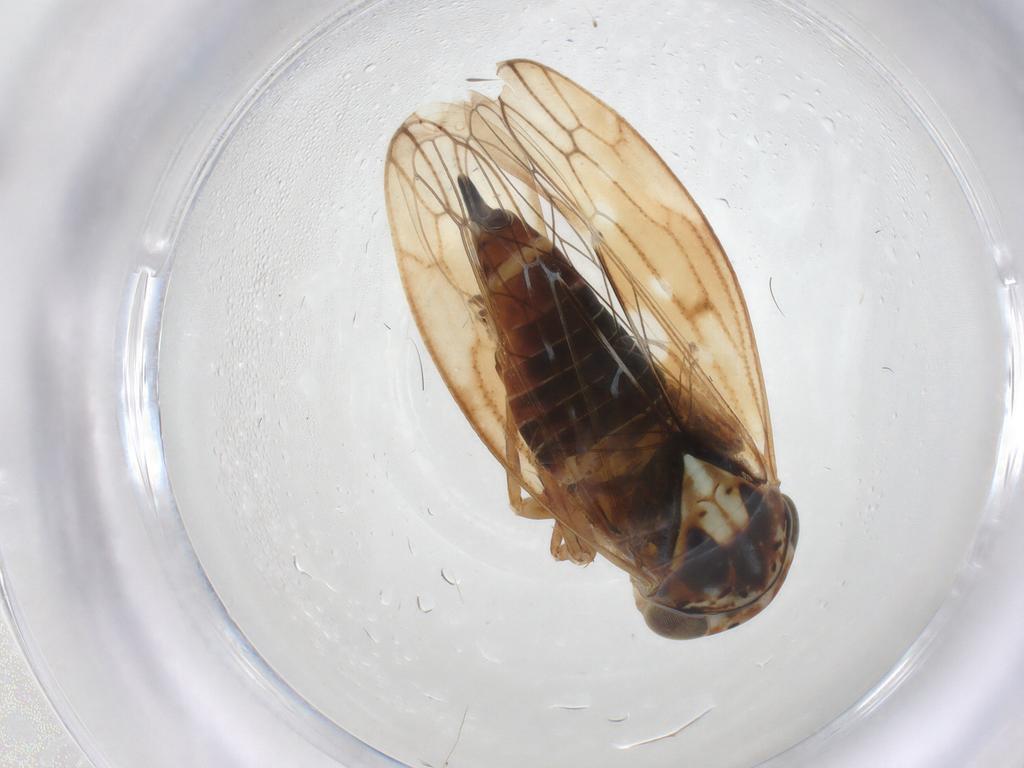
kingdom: Animalia
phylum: Arthropoda
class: Insecta
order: Hemiptera
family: Cicadellidae
